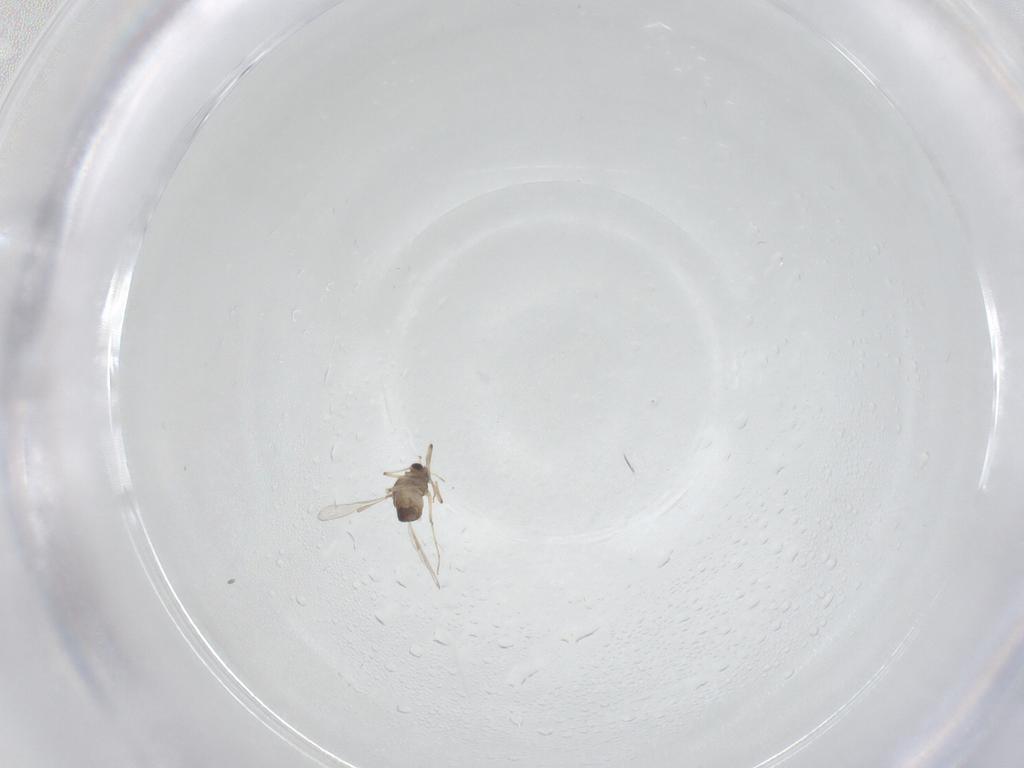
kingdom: Animalia
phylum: Arthropoda
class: Insecta
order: Diptera
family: Chironomidae
